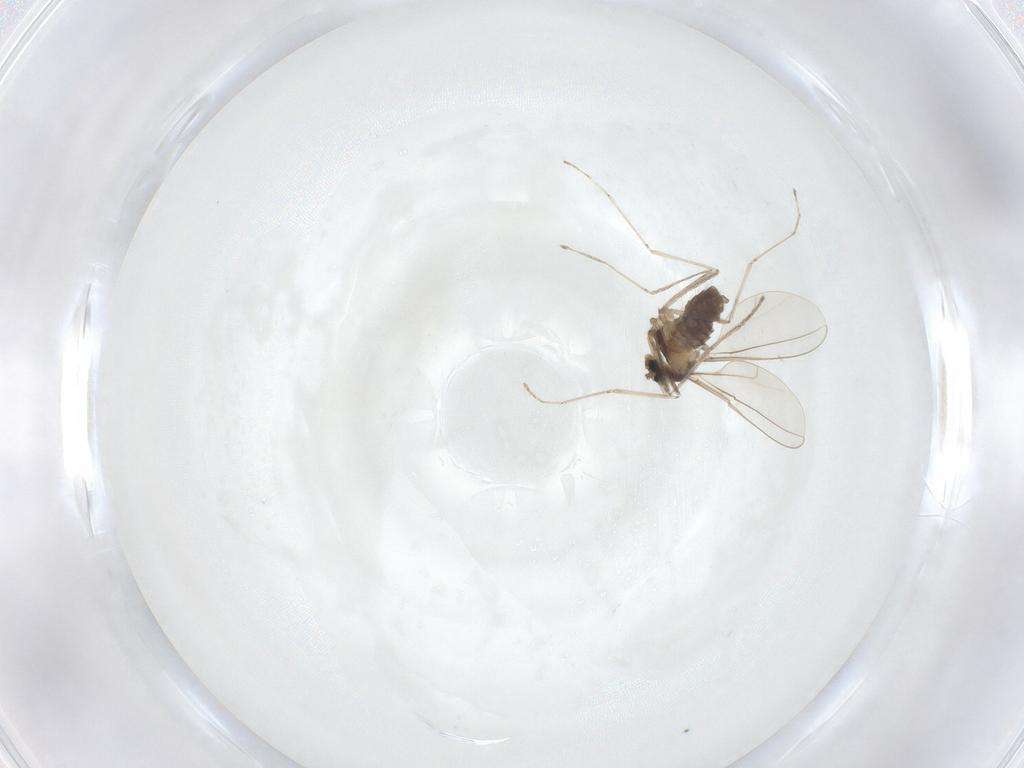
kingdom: Animalia
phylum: Arthropoda
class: Insecta
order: Diptera
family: Cecidomyiidae
